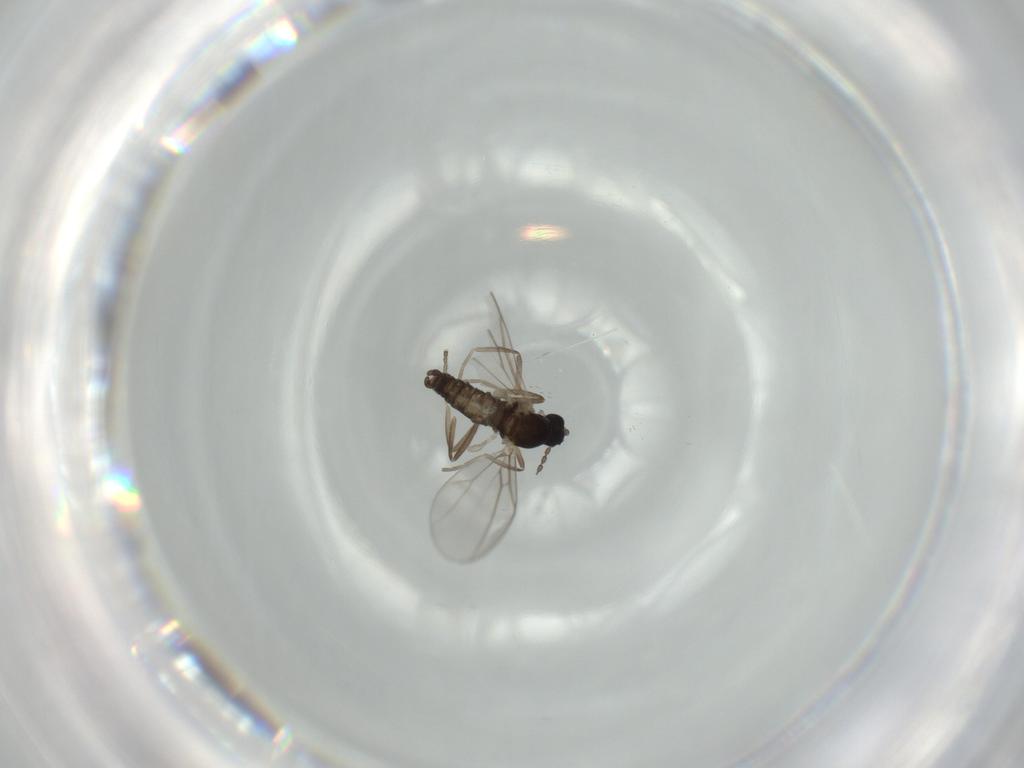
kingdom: Animalia
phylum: Arthropoda
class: Insecta
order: Diptera
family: Cecidomyiidae
